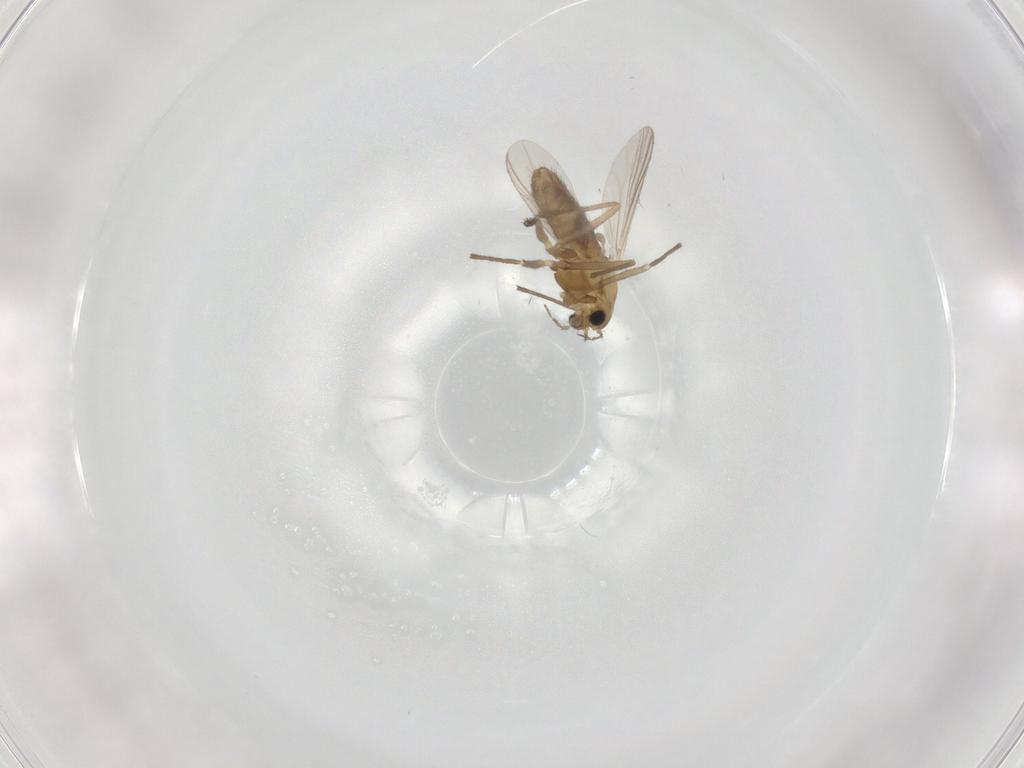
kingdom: Animalia
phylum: Arthropoda
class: Insecta
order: Diptera
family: Dolichopodidae
